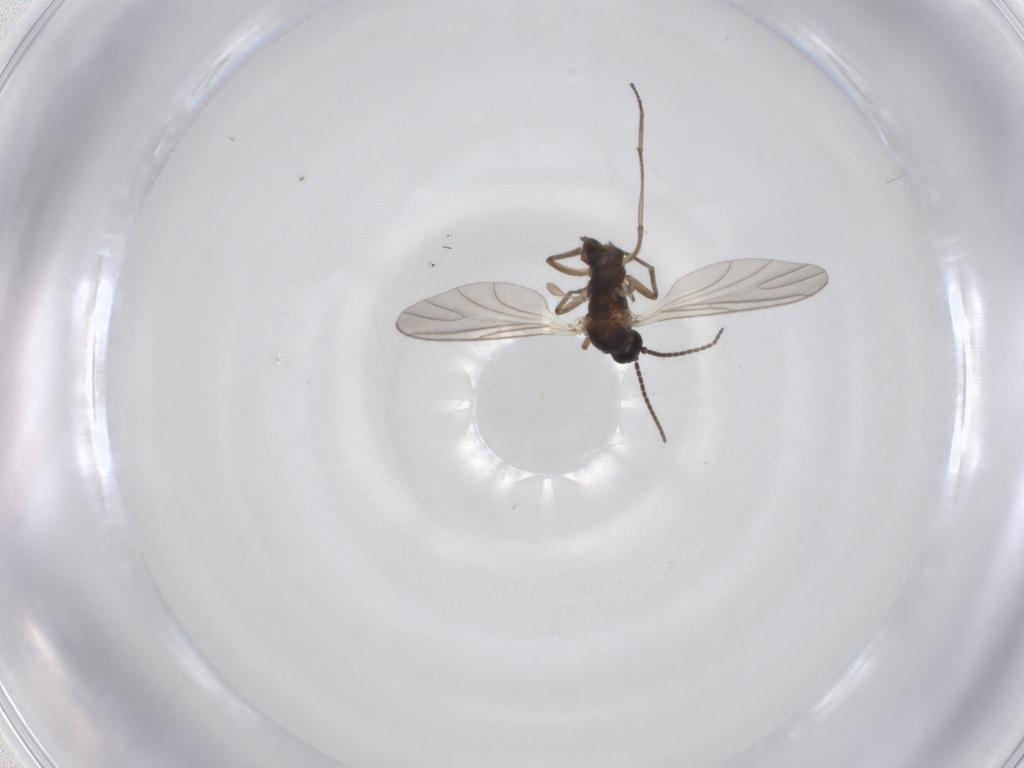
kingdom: Animalia
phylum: Arthropoda
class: Insecta
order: Diptera
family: Sciaridae
